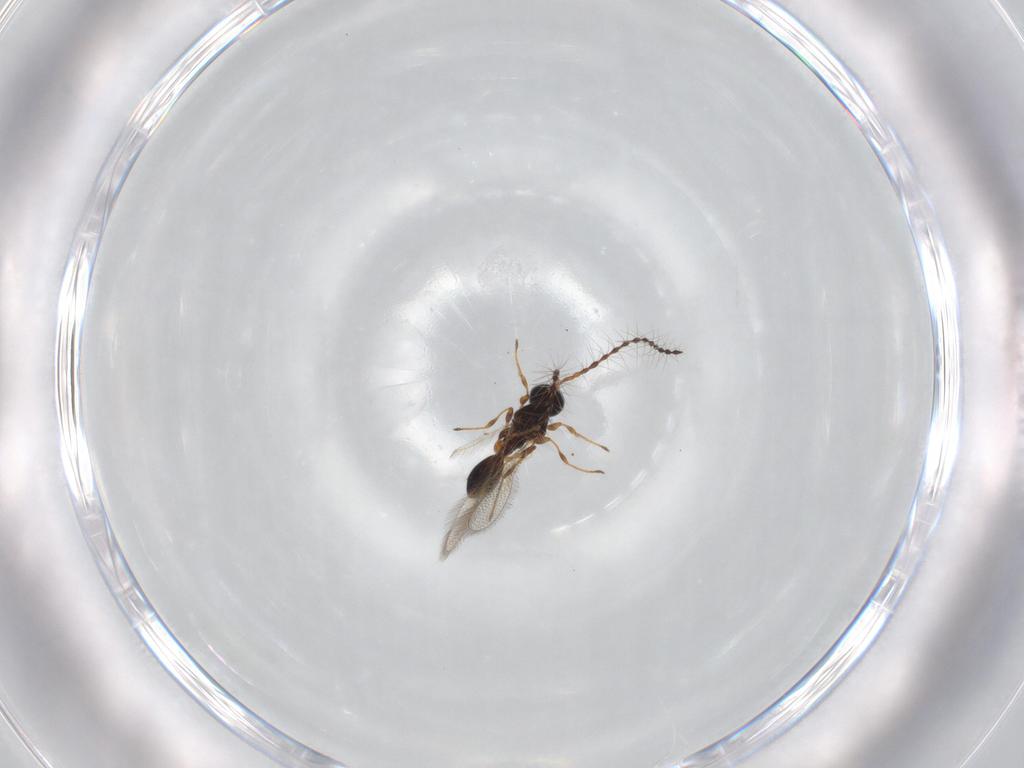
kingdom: Animalia
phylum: Arthropoda
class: Insecta
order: Hymenoptera
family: Diapriidae
